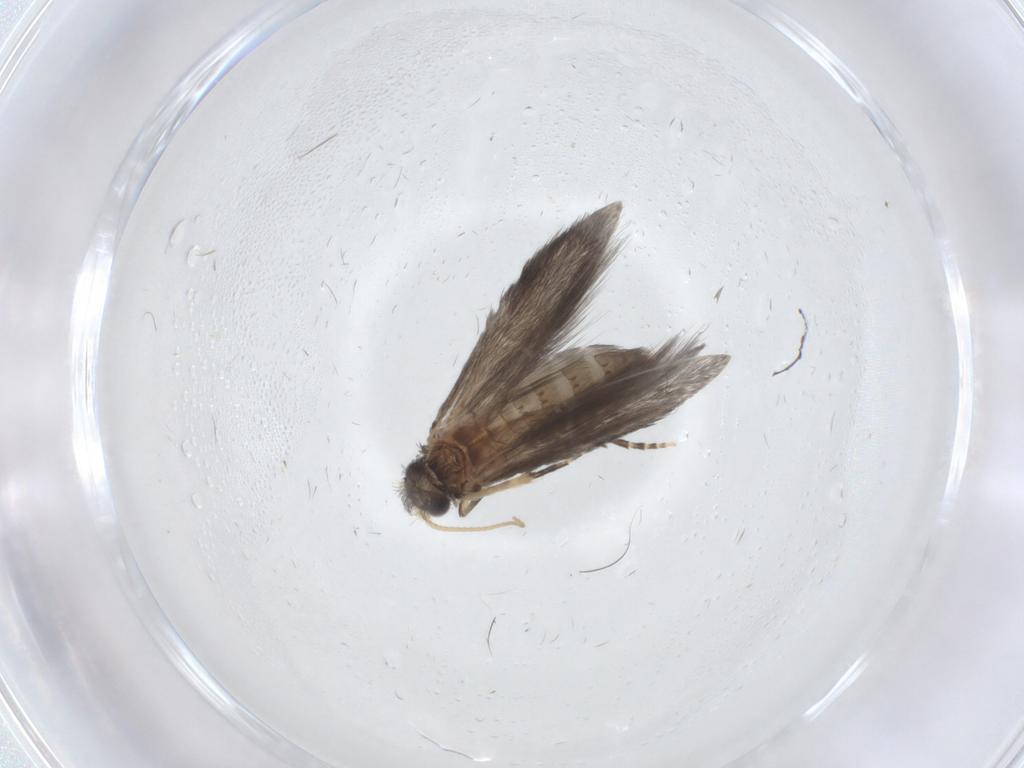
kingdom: Animalia
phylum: Arthropoda
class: Insecta
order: Trichoptera
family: Hydroptilidae
